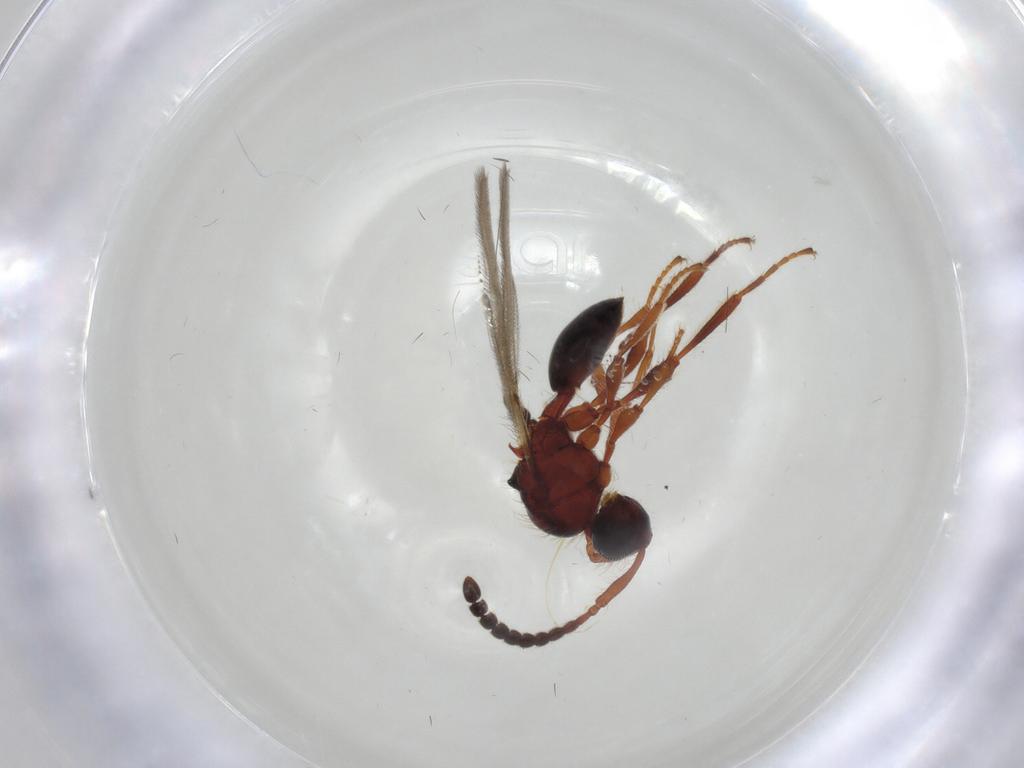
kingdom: Animalia
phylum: Arthropoda
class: Insecta
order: Hymenoptera
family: Diapriidae
